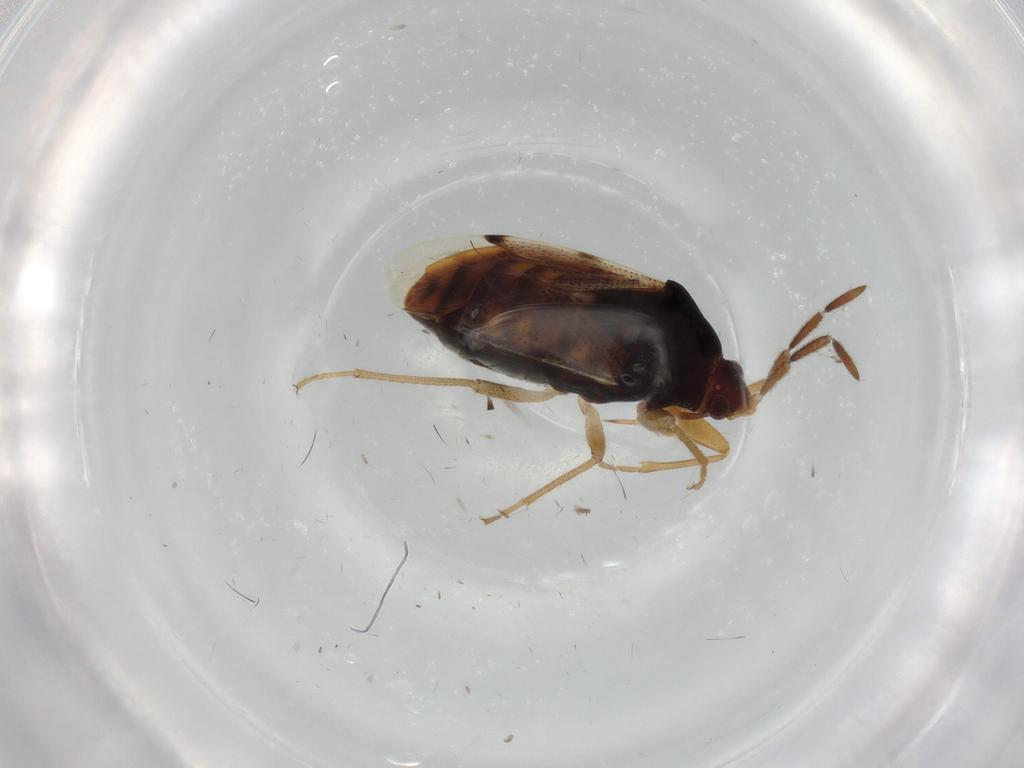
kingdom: Animalia
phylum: Arthropoda
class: Insecta
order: Hemiptera
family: Rhyparochromidae
